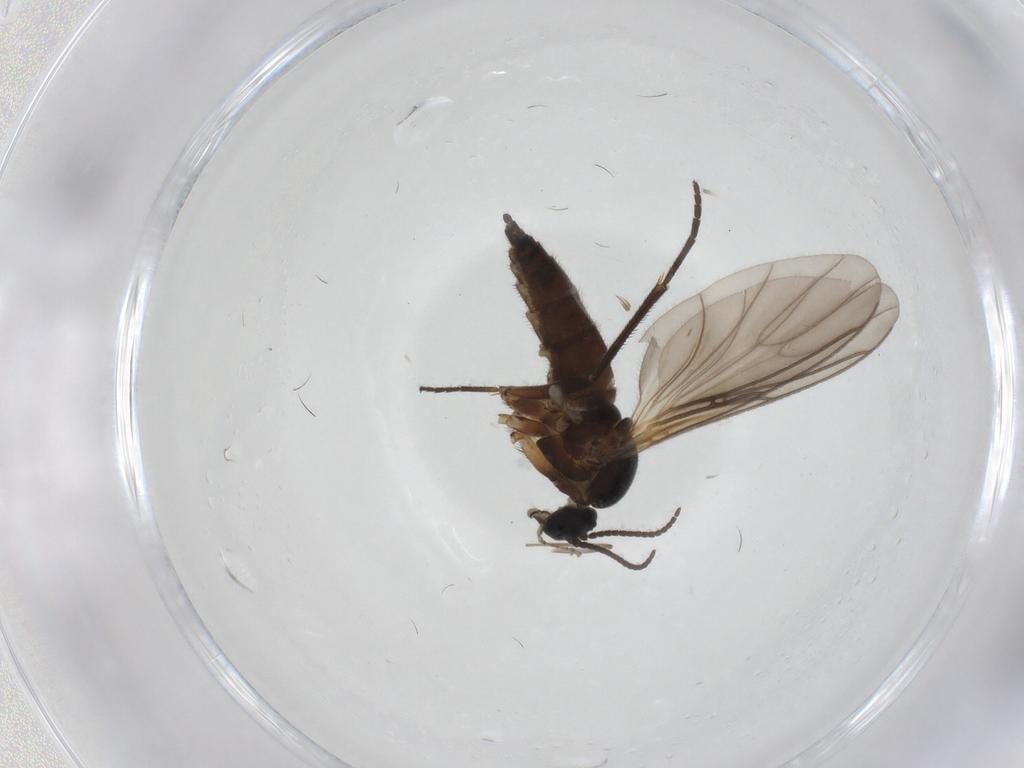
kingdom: Animalia
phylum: Arthropoda
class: Insecta
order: Diptera
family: Sciaridae
